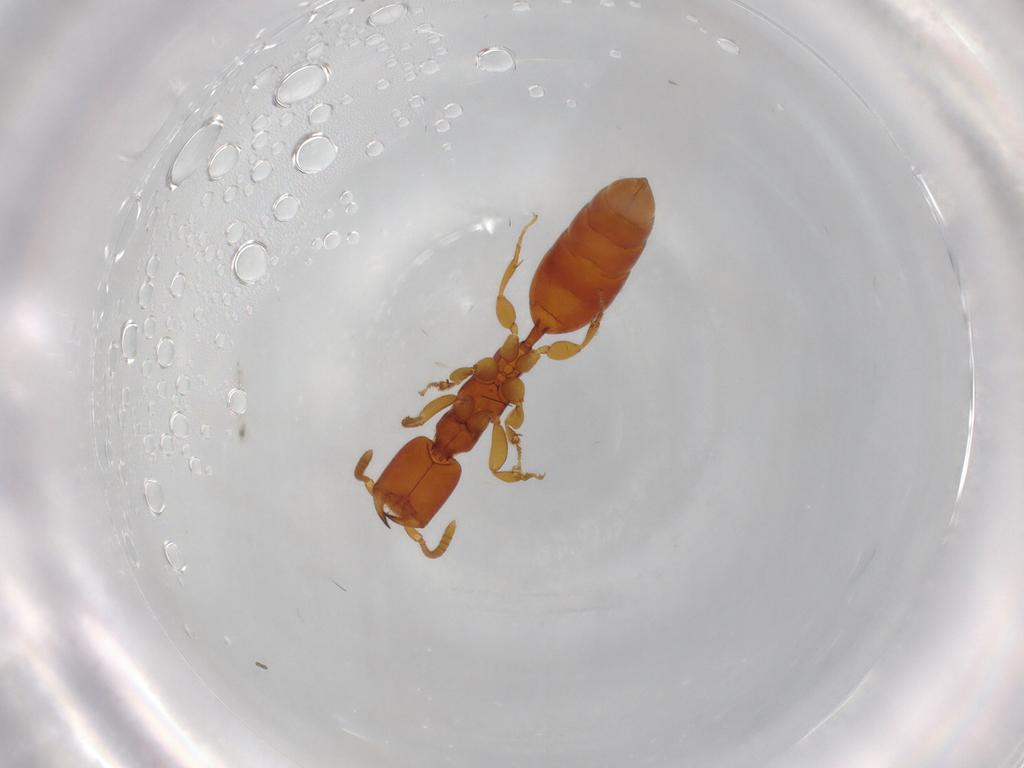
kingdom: Animalia
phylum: Arthropoda
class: Insecta
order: Hymenoptera
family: Bethylidae
